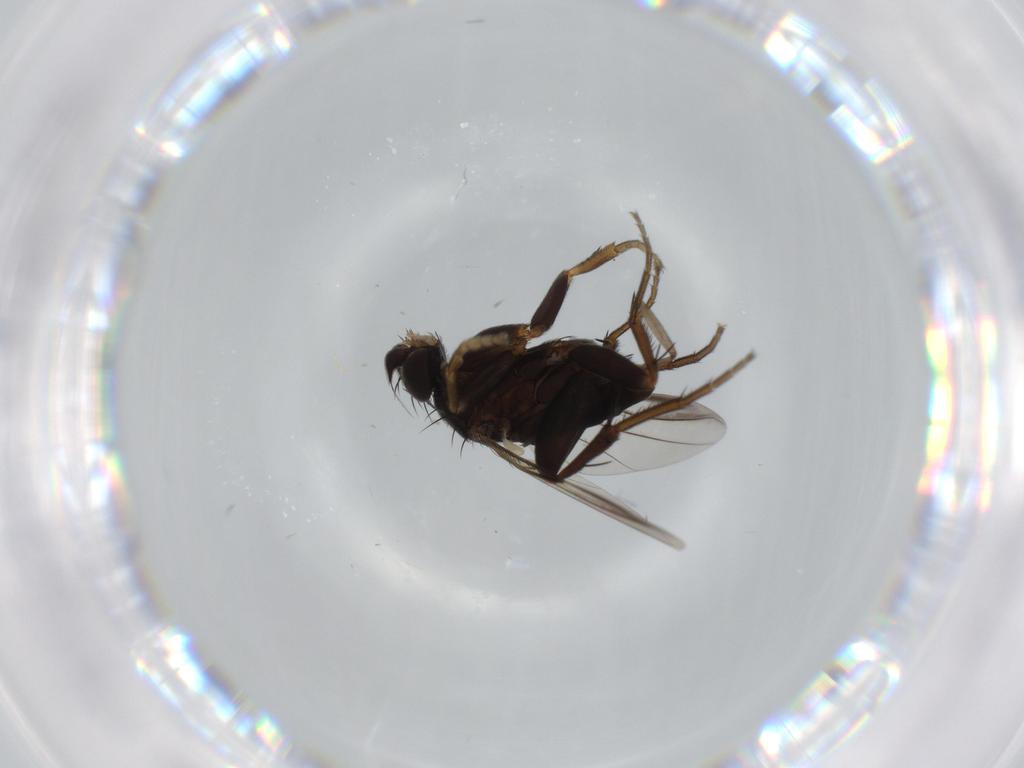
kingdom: Animalia
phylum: Arthropoda
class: Insecta
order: Diptera
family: Phoridae
